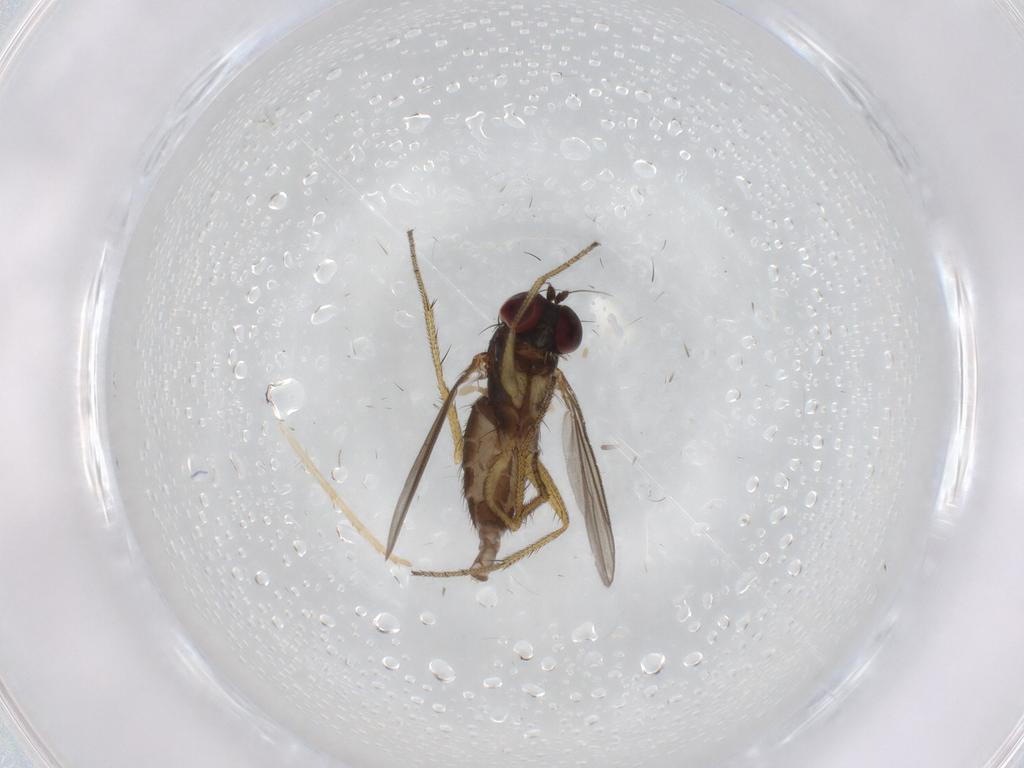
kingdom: Animalia
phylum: Arthropoda
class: Insecta
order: Diptera
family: Dolichopodidae
